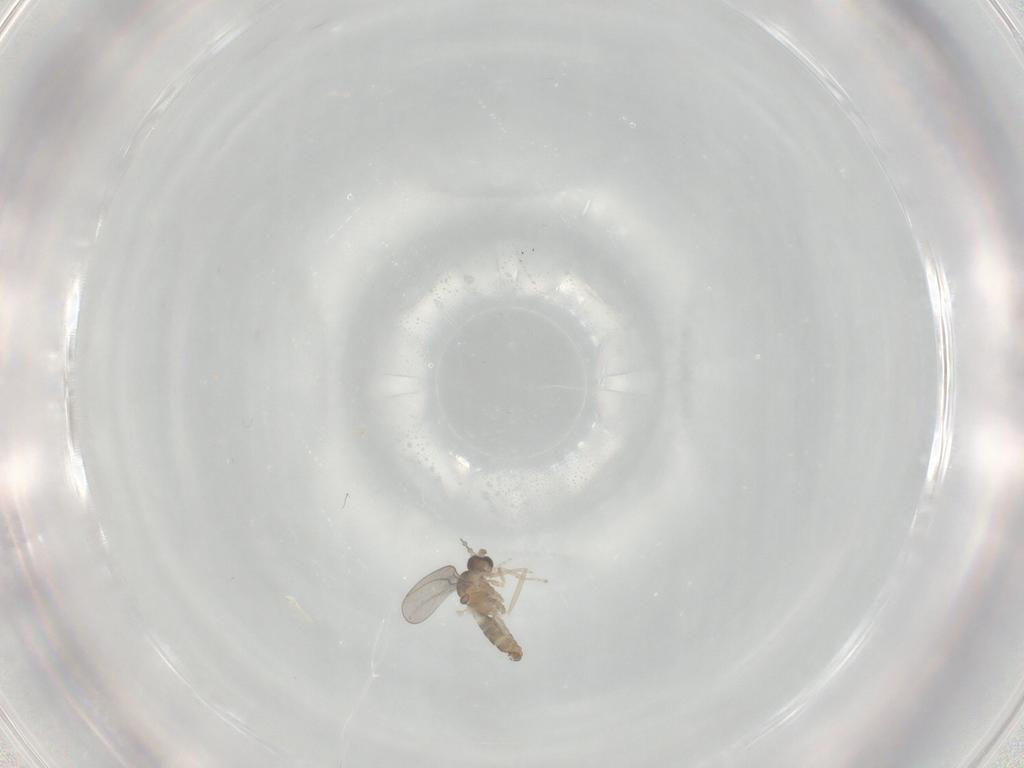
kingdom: Animalia
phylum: Arthropoda
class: Insecta
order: Diptera
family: Cecidomyiidae
